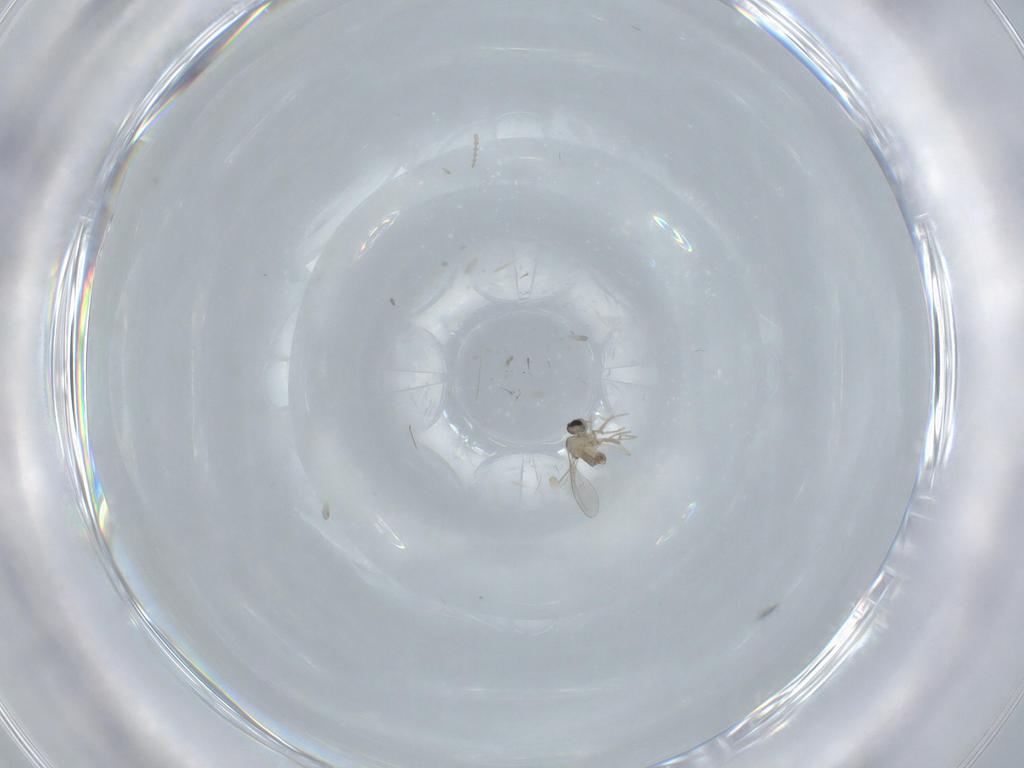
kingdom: Animalia
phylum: Arthropoda
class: Insecta
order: Diptera
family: Cecidomyiidae
